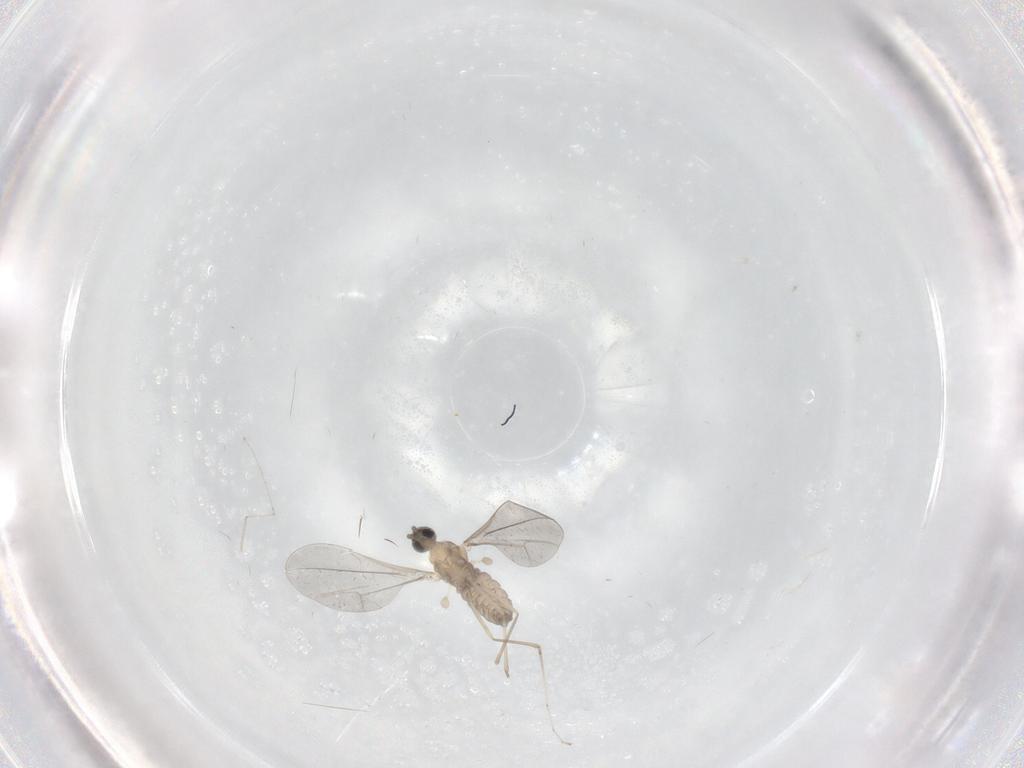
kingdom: Animalia
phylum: Arthropoda
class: Insecta
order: Diptera
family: Cecidomyiidae
